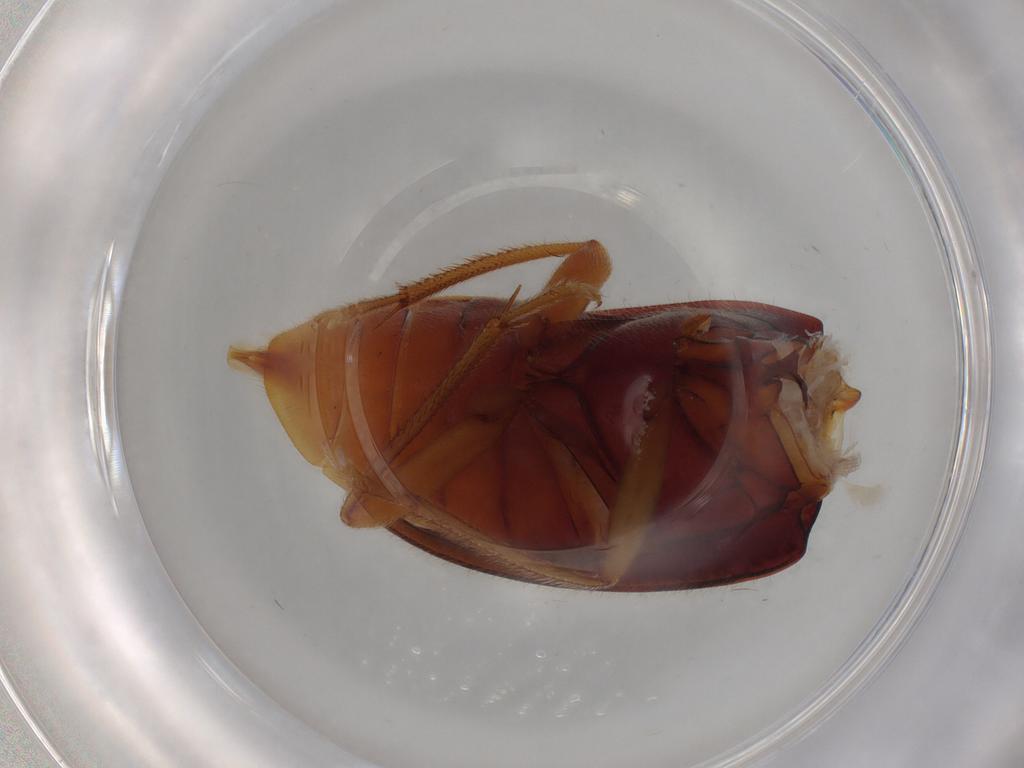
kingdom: Animalia
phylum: Arthropoda
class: Insecta
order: Coleoptera
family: Ptilodactylidae
